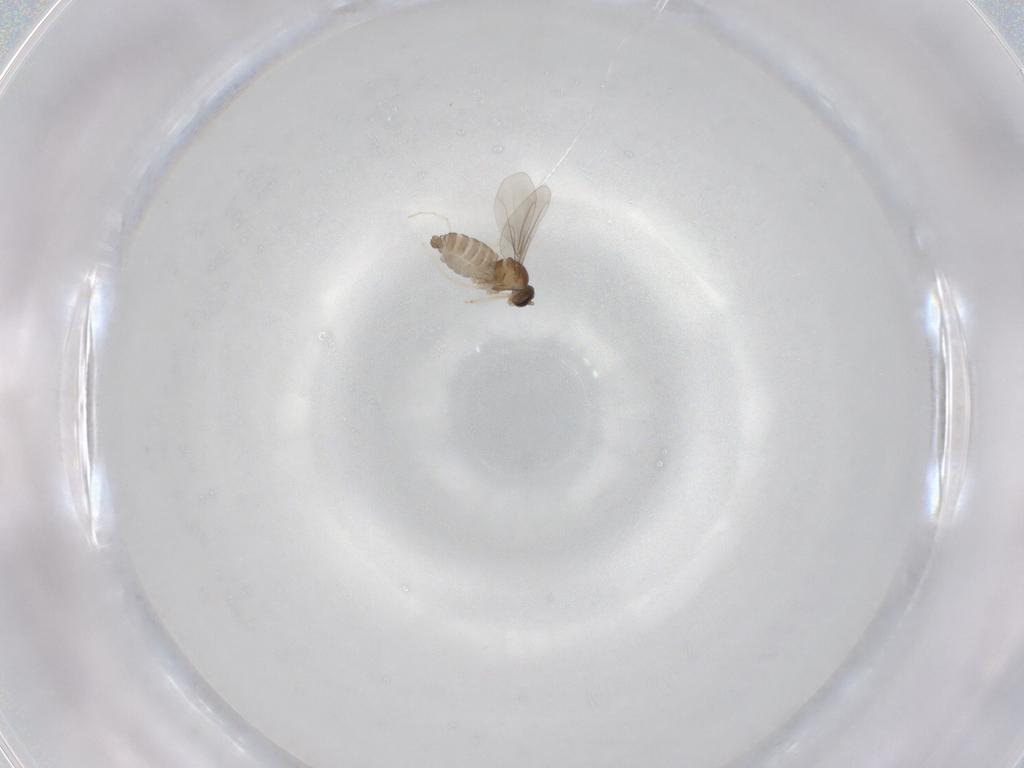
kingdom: Animalia
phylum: Arthropoda
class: Insecta
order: Diptera
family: Cecidomyiidae
